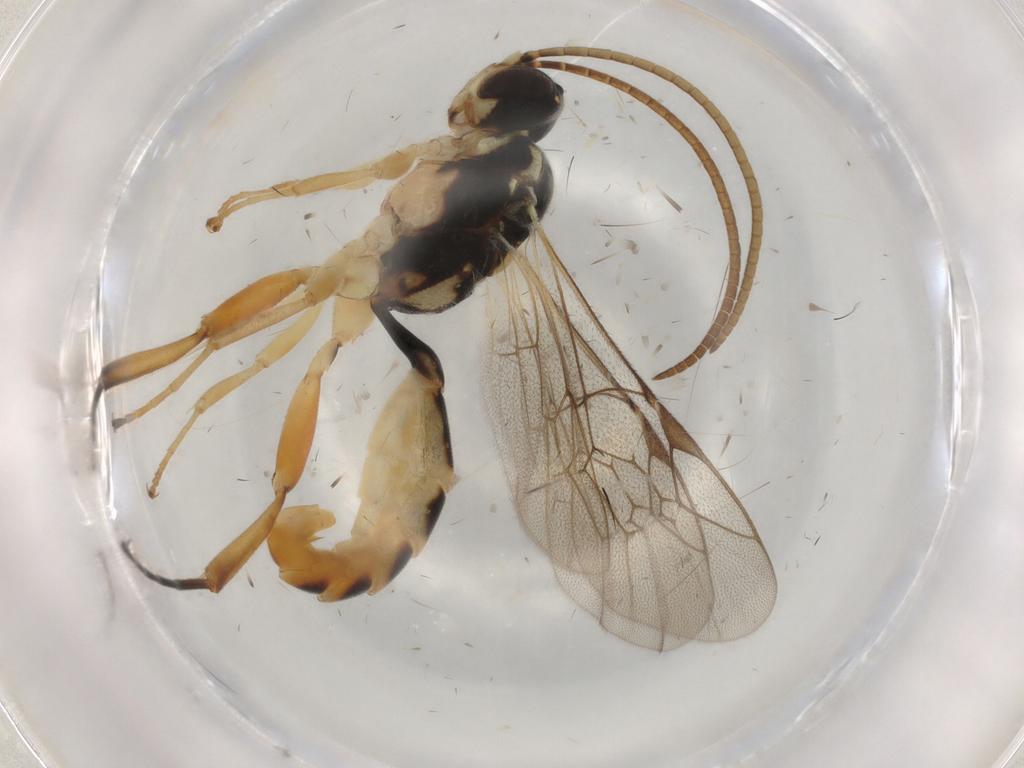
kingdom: Animalia
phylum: Arthropoda
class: Insecta
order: Hymenoptera
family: Ichneumonidae
